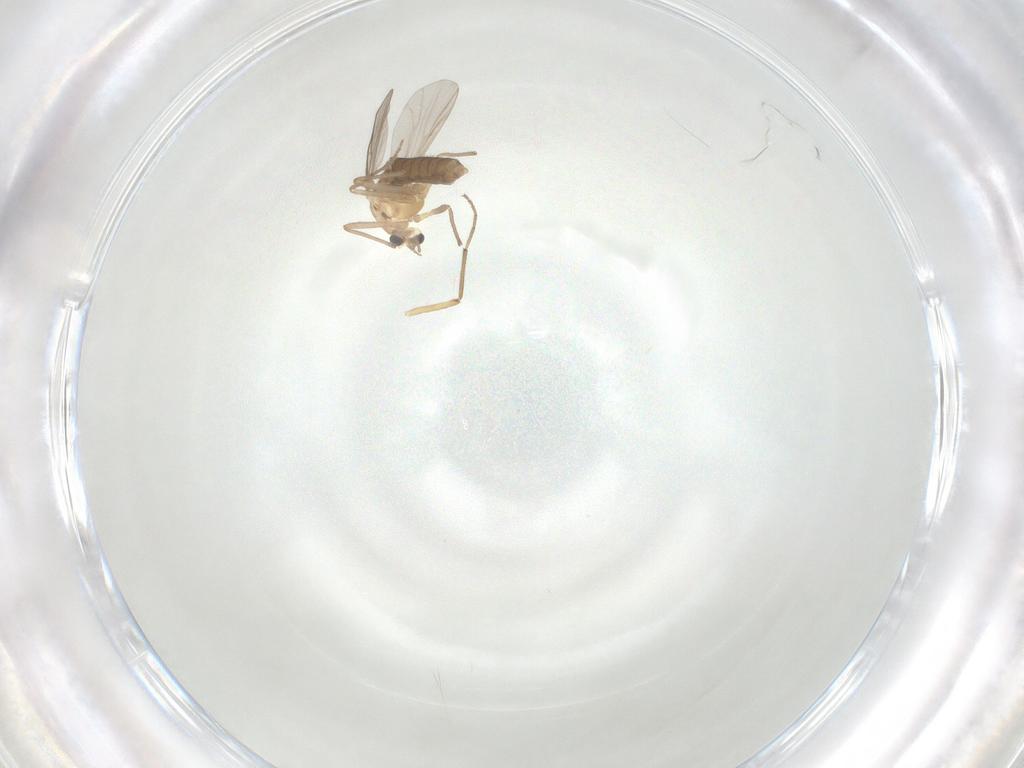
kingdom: Animalia
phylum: Arthropoda
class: Insecta
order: Diptera
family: Chironomidae
